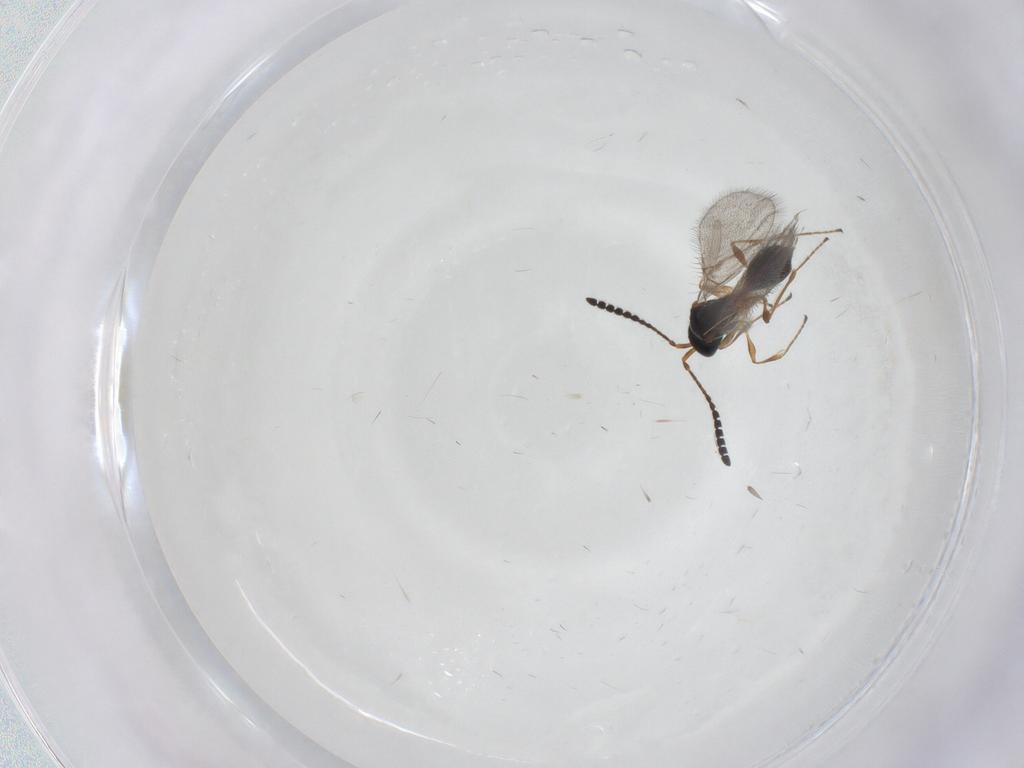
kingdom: Animalia
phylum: Arthropoda
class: Insecta
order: Hymenoptera
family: Diapriidae
